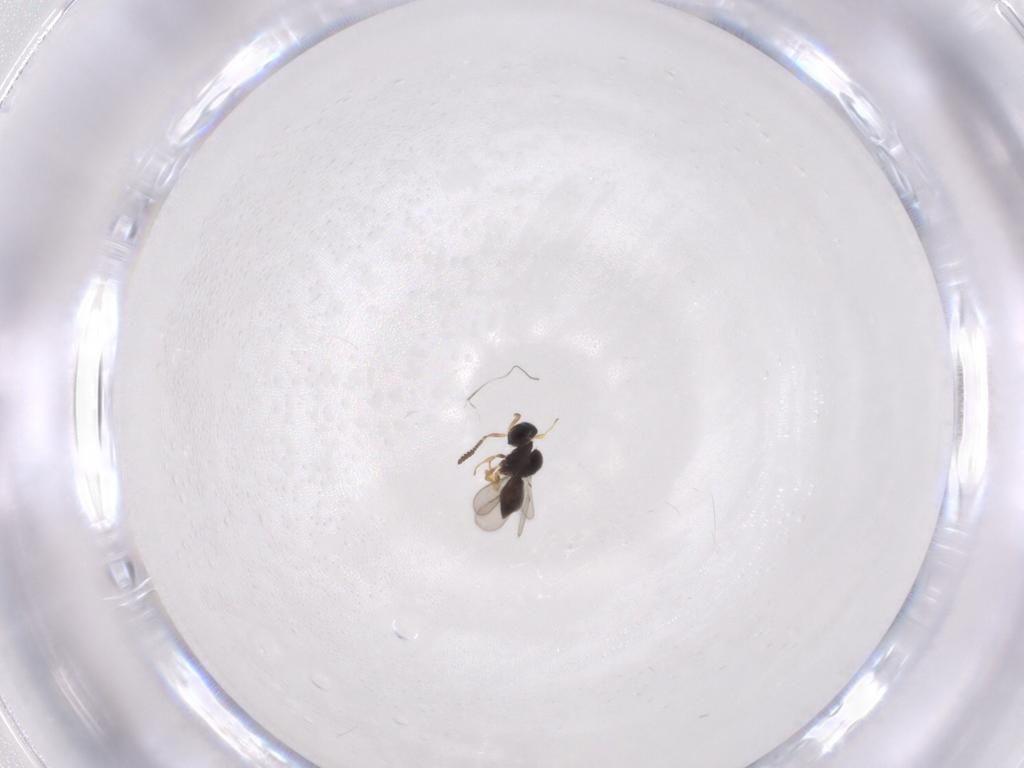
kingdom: Animalia
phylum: Arthropoda
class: Insecta
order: Hymenoptera
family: Scelionidae
